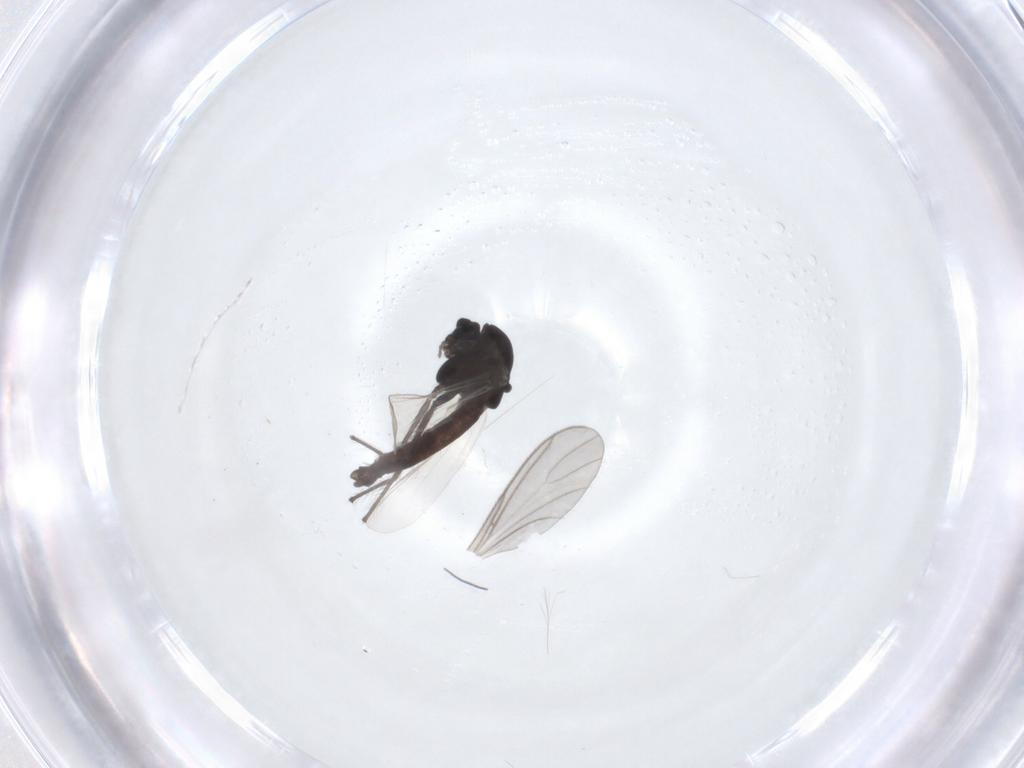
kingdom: Animalia
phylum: Arthropoda
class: Insecta
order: Diptera
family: Chironomidae
